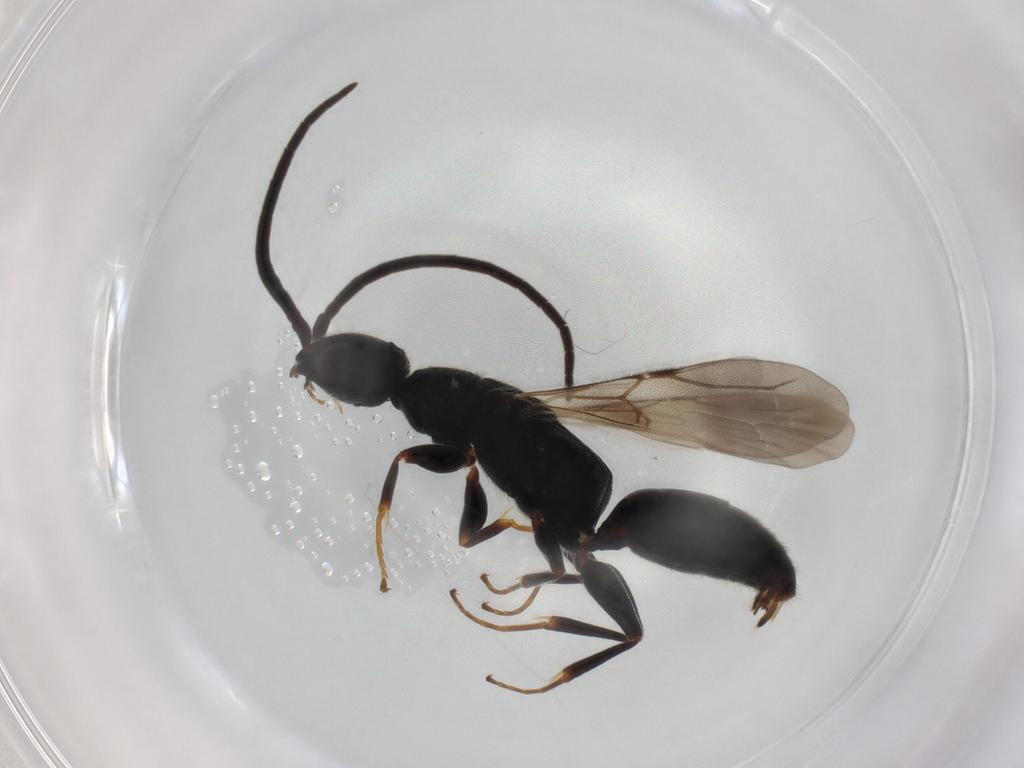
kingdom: Animalia
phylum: Arthropoda
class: Insecta
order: Hymenoptera
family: Bethylidae
